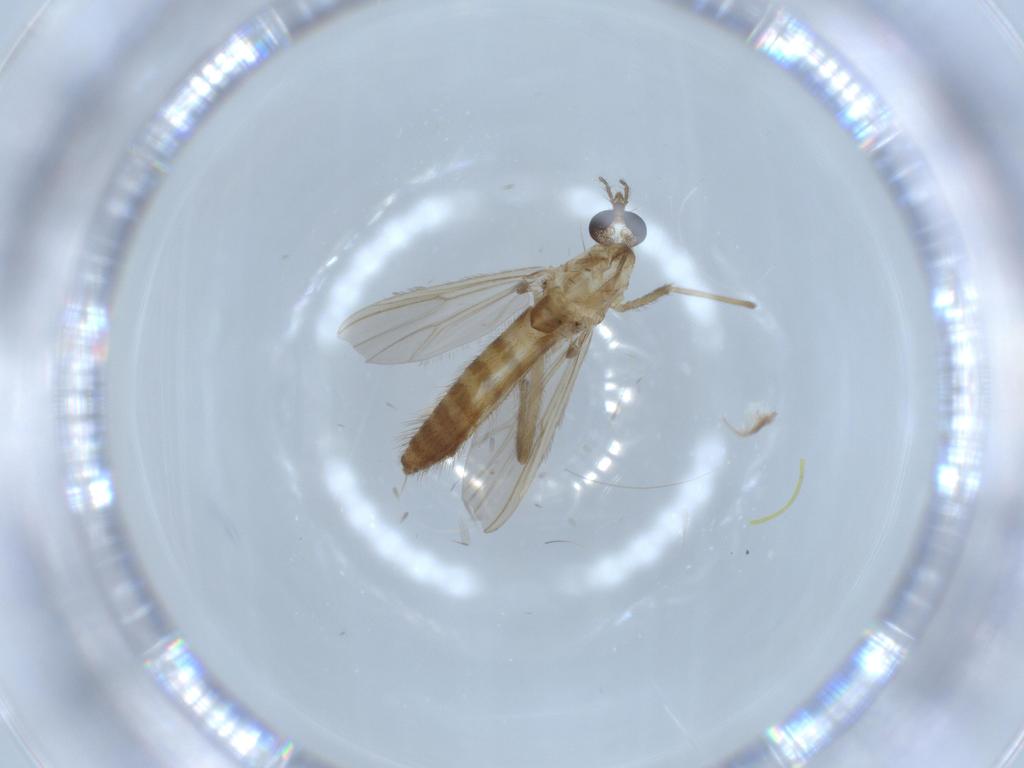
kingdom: Animalia
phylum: Arthropoda
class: Insecta
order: Diptera
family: Chironomidae
